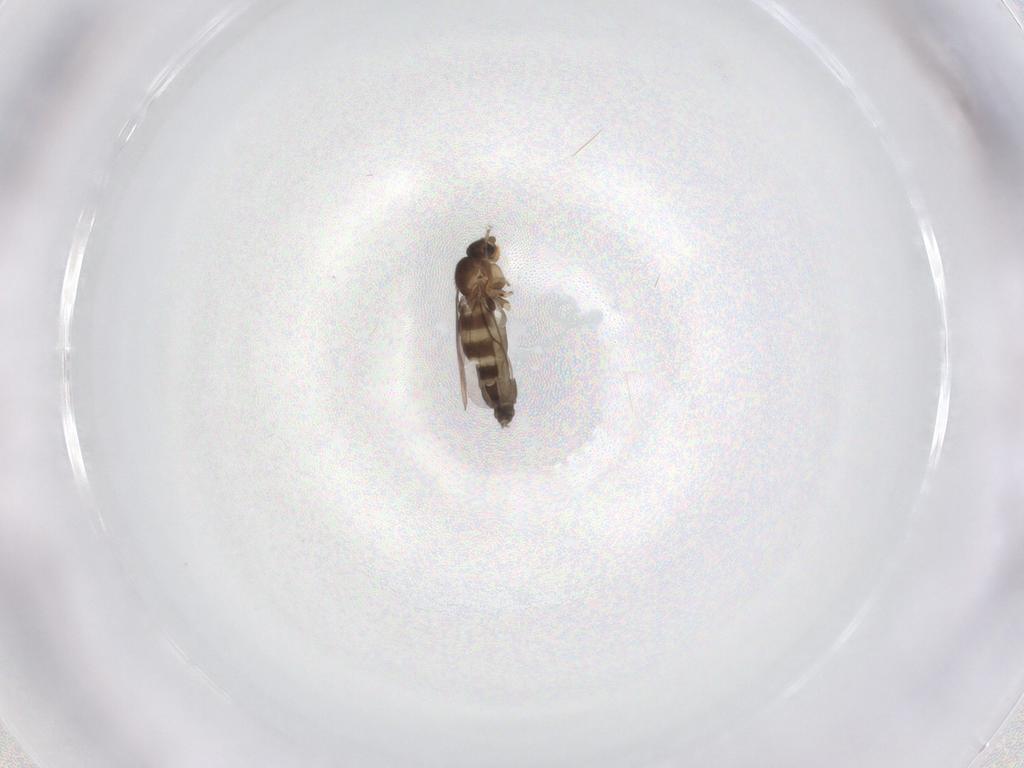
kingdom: Animalia
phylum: Arthropoda
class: Insecta
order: Diptera
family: Phoridae
